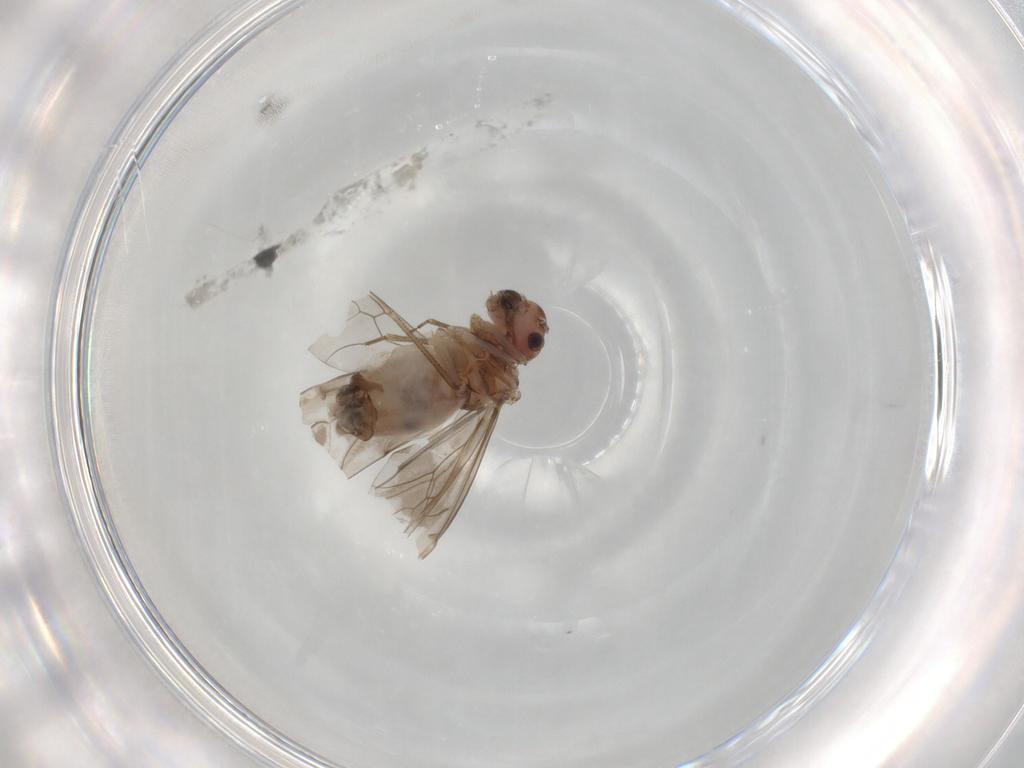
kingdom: Animalia
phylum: Arthropoda
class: Insecta
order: Psocodea
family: Peripsocidae
